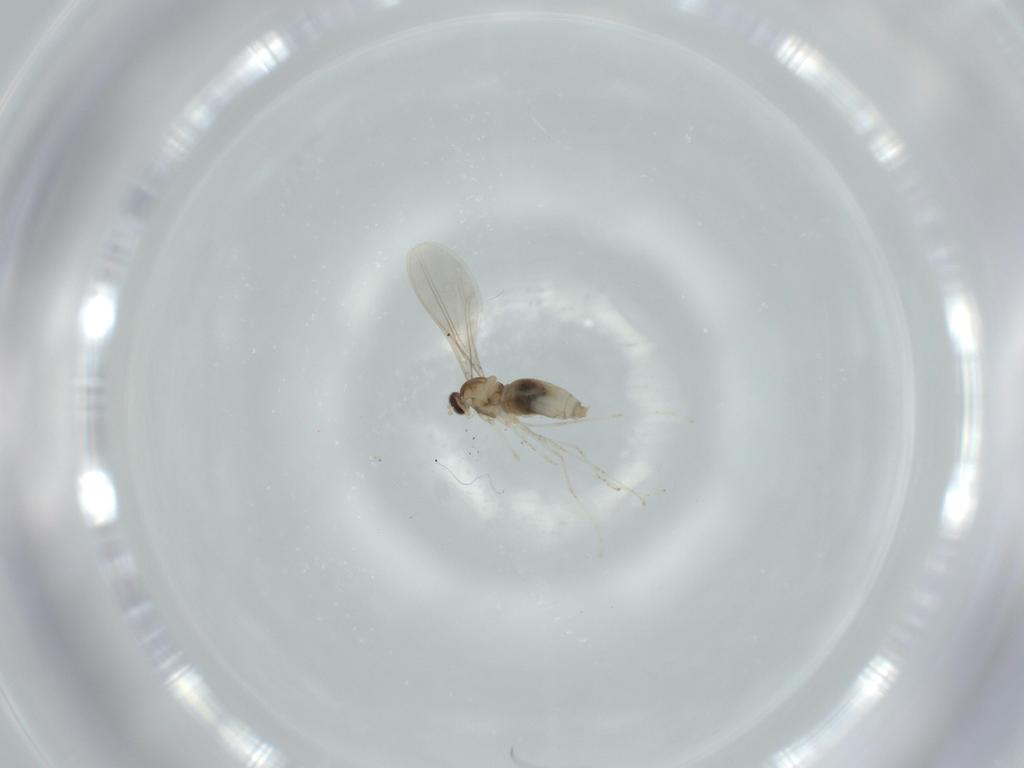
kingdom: Animalia
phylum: Arthropoda
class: Insecta
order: Diptera
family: Cecidomyiidae
